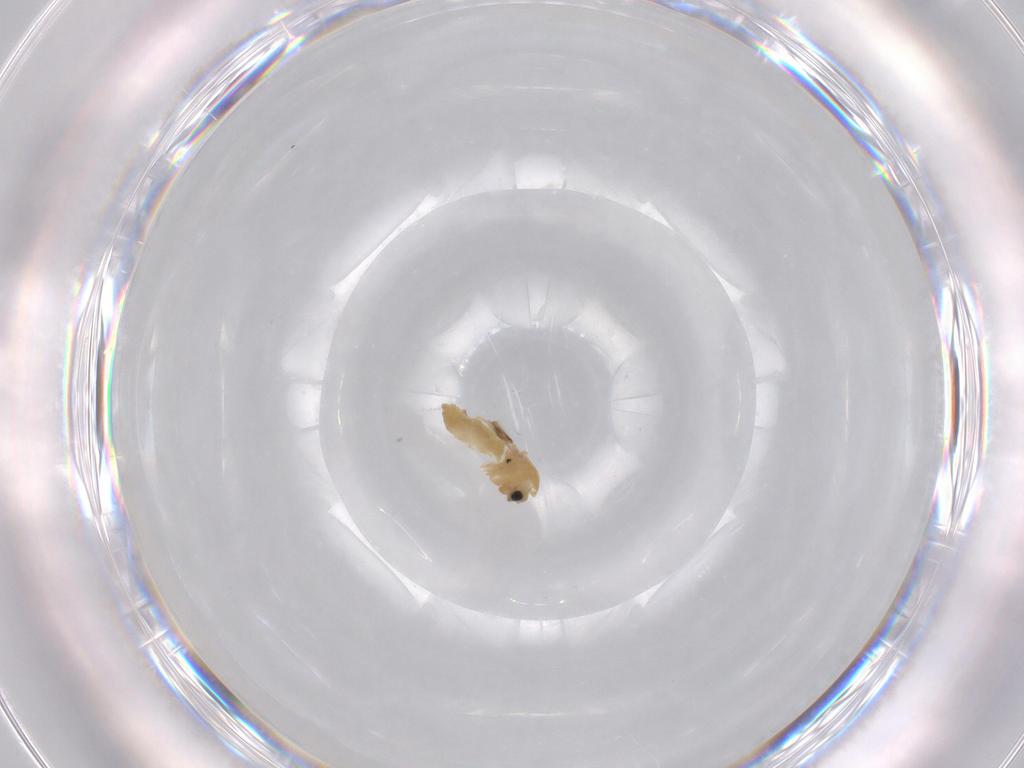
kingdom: Animalia
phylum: Arthropoda
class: Insecta
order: Diptera
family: Chironomidae
